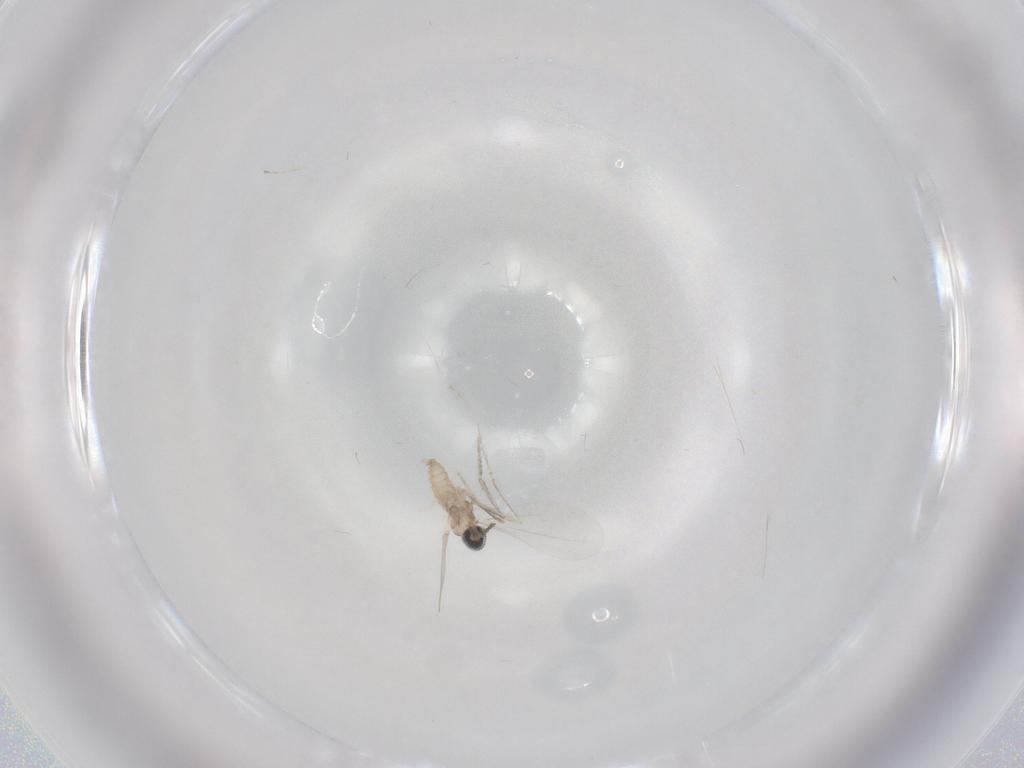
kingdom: Animalia
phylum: Arthropoda
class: Insecta
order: Diptera
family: Cecidomyiidae
